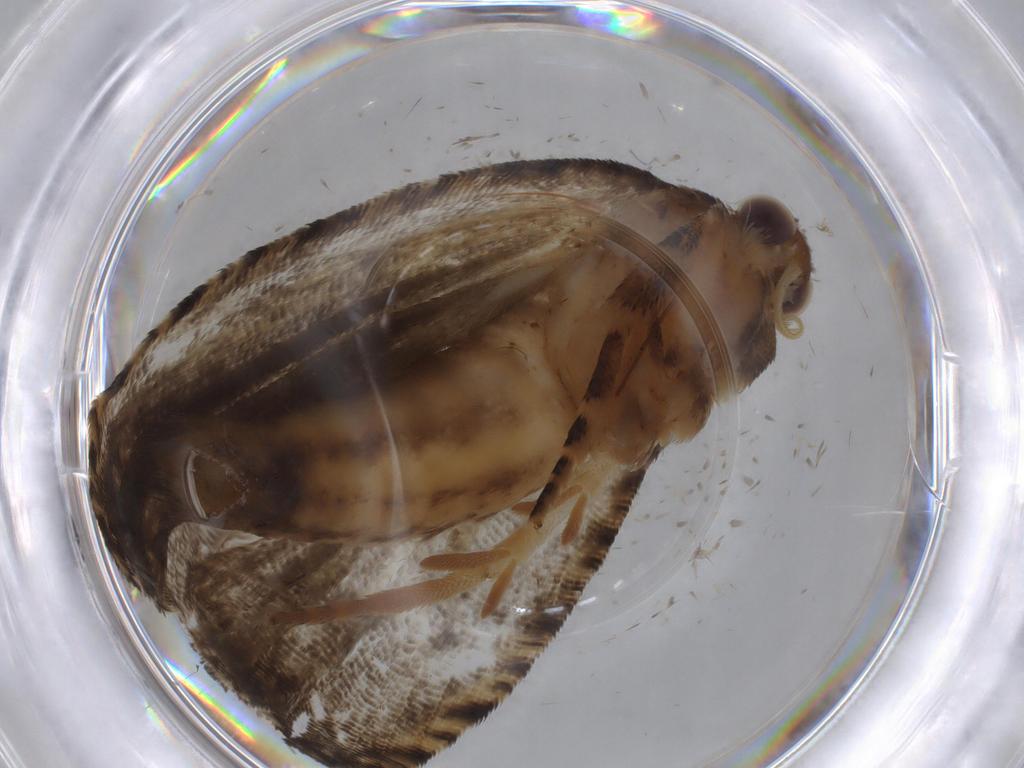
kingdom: Animalia
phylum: Arthropoda
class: Insecta
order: Lepidoptera
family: Tortricidae
